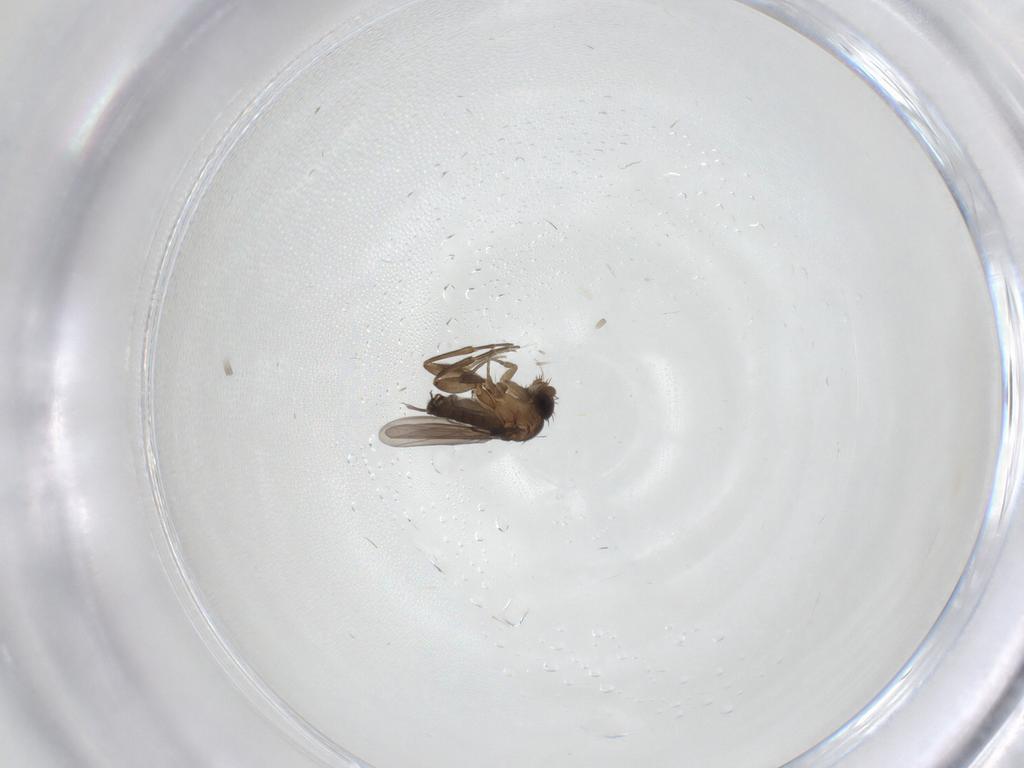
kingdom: Animalia
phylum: Arthropoda
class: Insecta
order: Diptera
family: Phoridae
